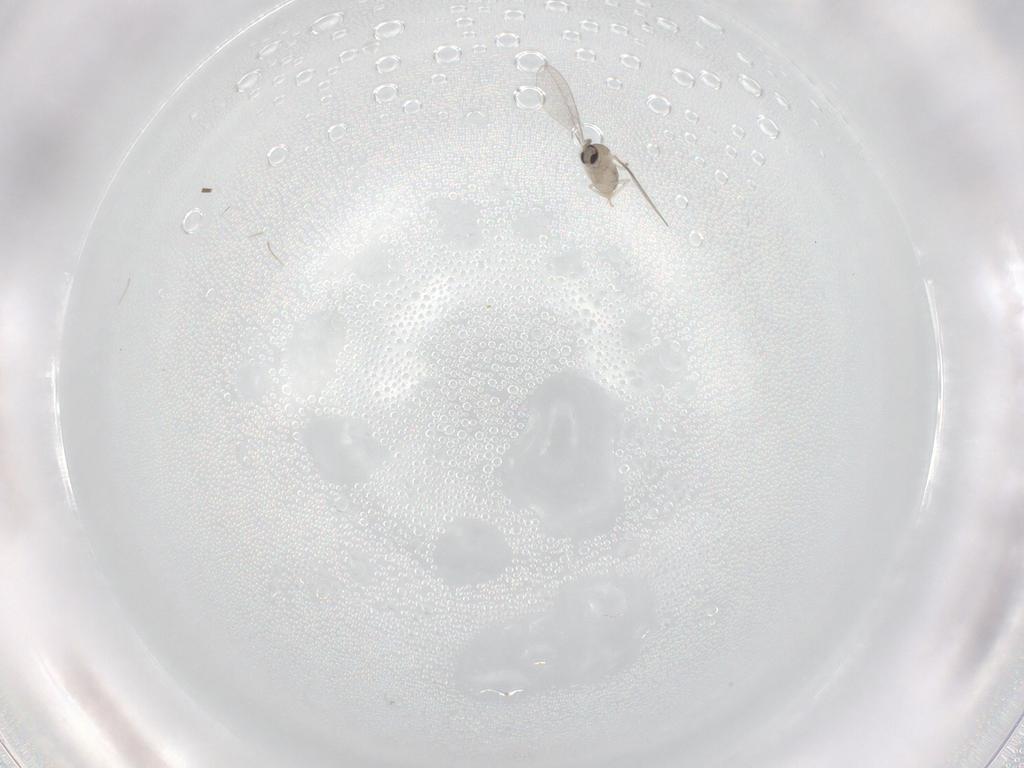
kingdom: Animalia
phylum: Arthropoda
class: Insecta
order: Diptera
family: Cecidomyiidae
